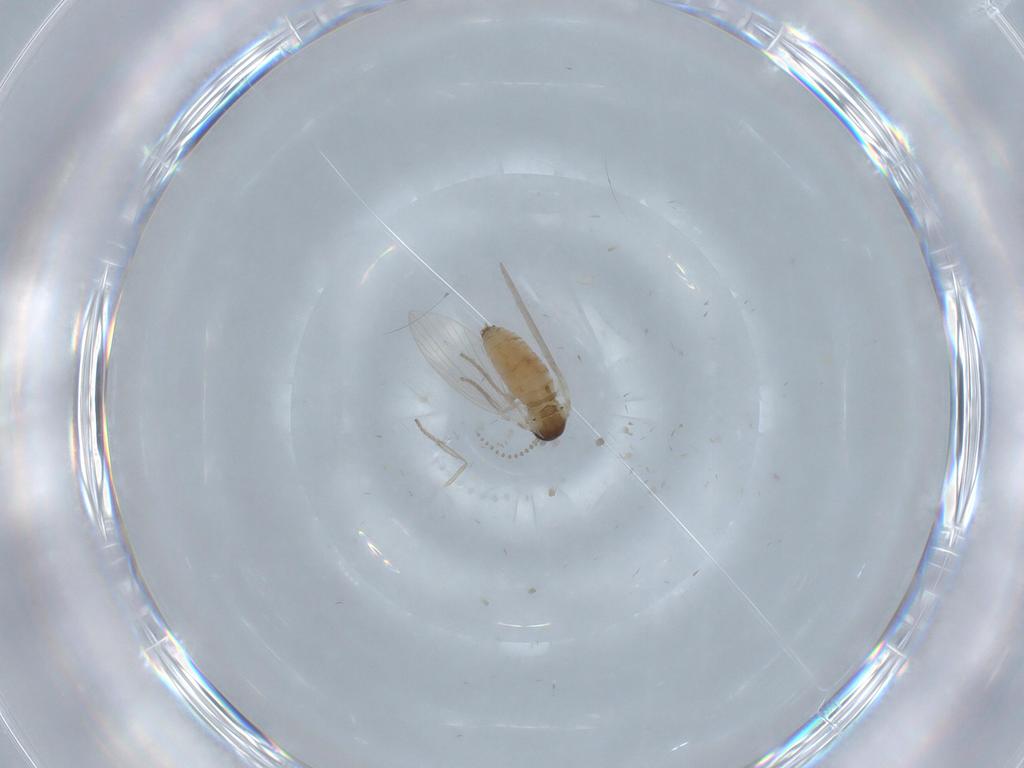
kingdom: Animalia
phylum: Arthropoda
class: Insecta
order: Diptera
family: Psychodidae
